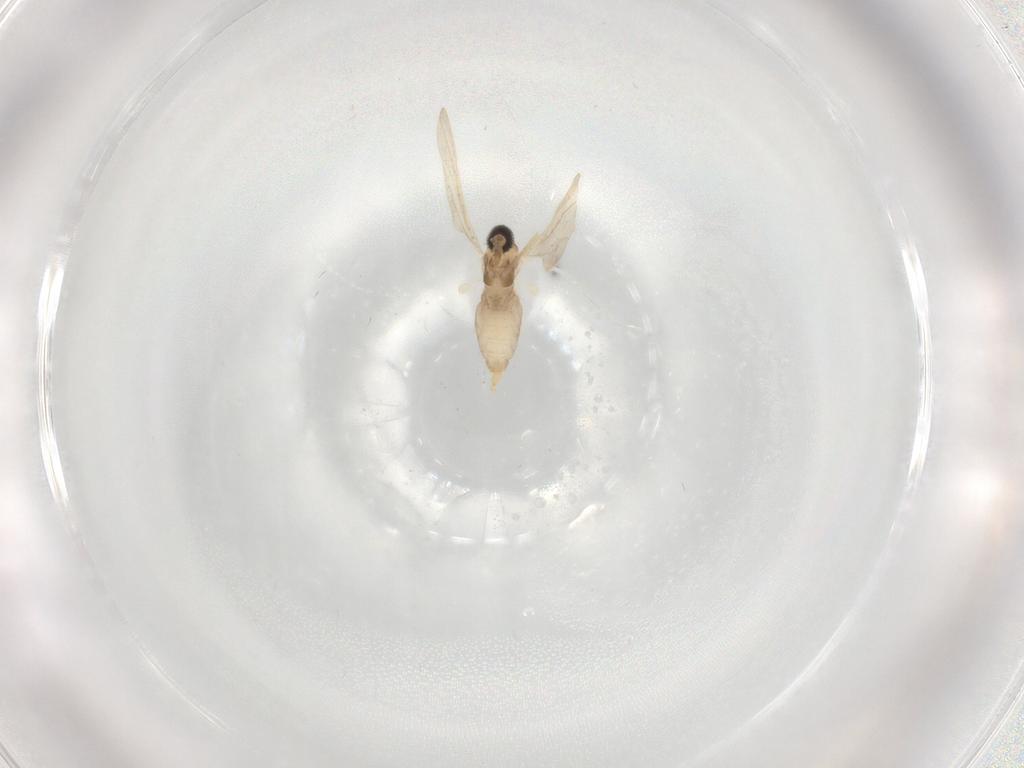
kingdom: Animalia
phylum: Arthropoda
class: Insecta
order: Diptera
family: Cecidomyiidae
